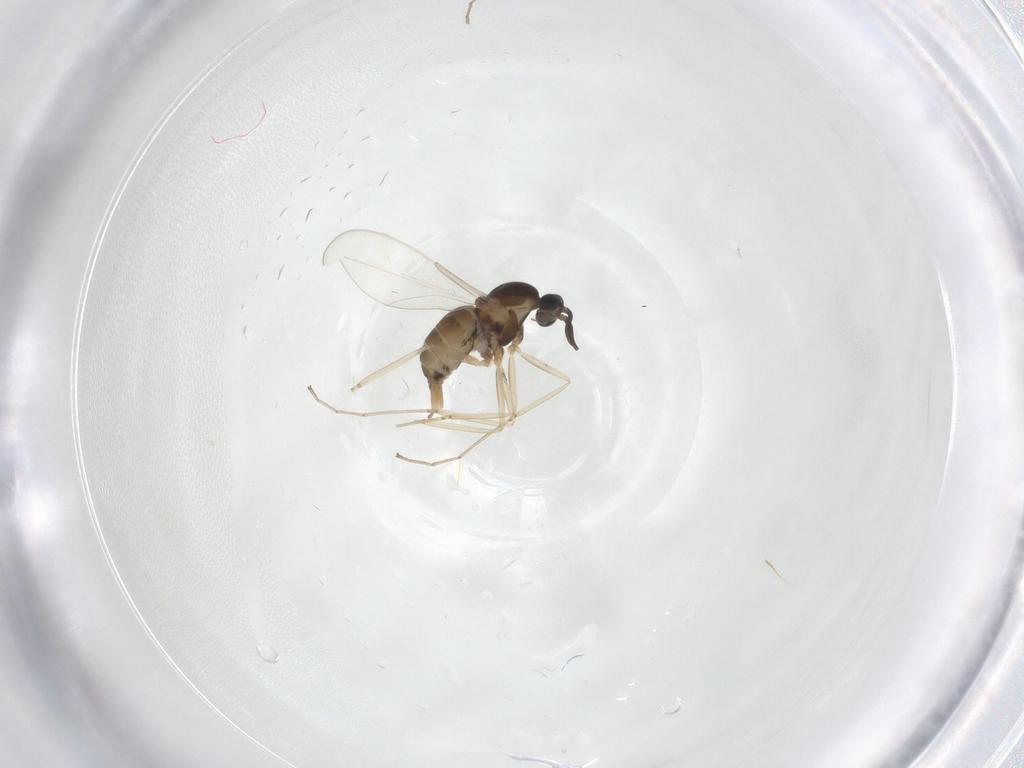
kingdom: Animalia
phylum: Arthropoda
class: Insecta
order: Diptera
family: Cecidomyiidae
